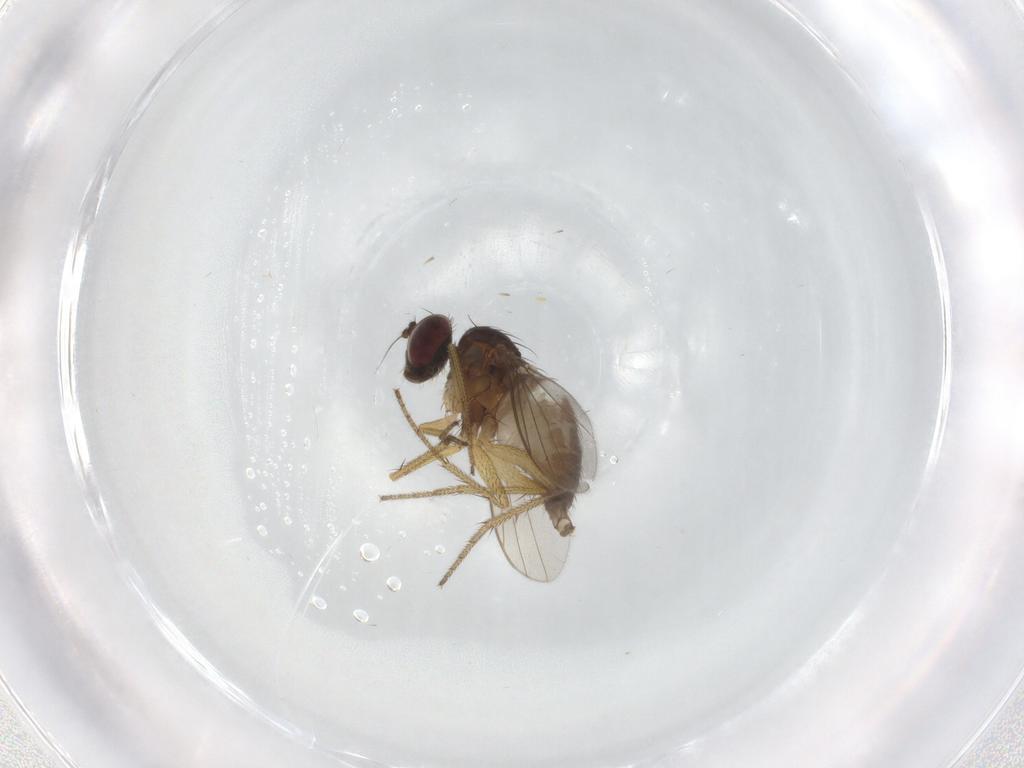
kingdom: Animalia
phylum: Arthropoda
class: Insecta
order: Diptera
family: Dolichopodidae
